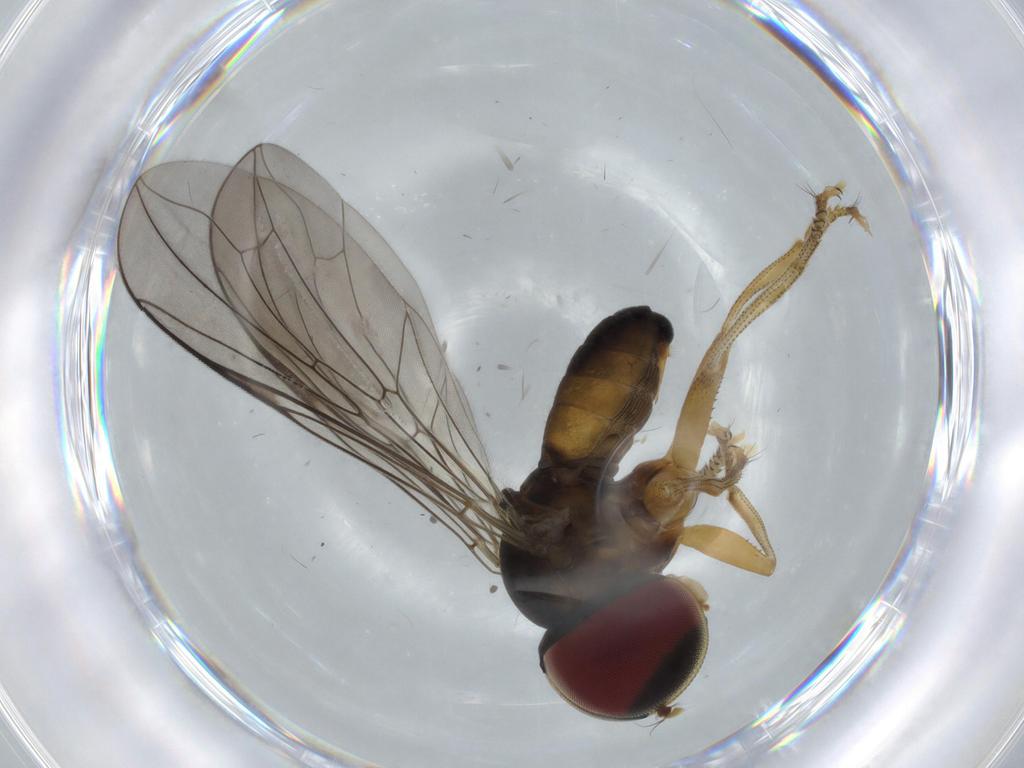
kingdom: Animalia
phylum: Arthropoda
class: Insecta
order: Diptera
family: Pipunculidae
